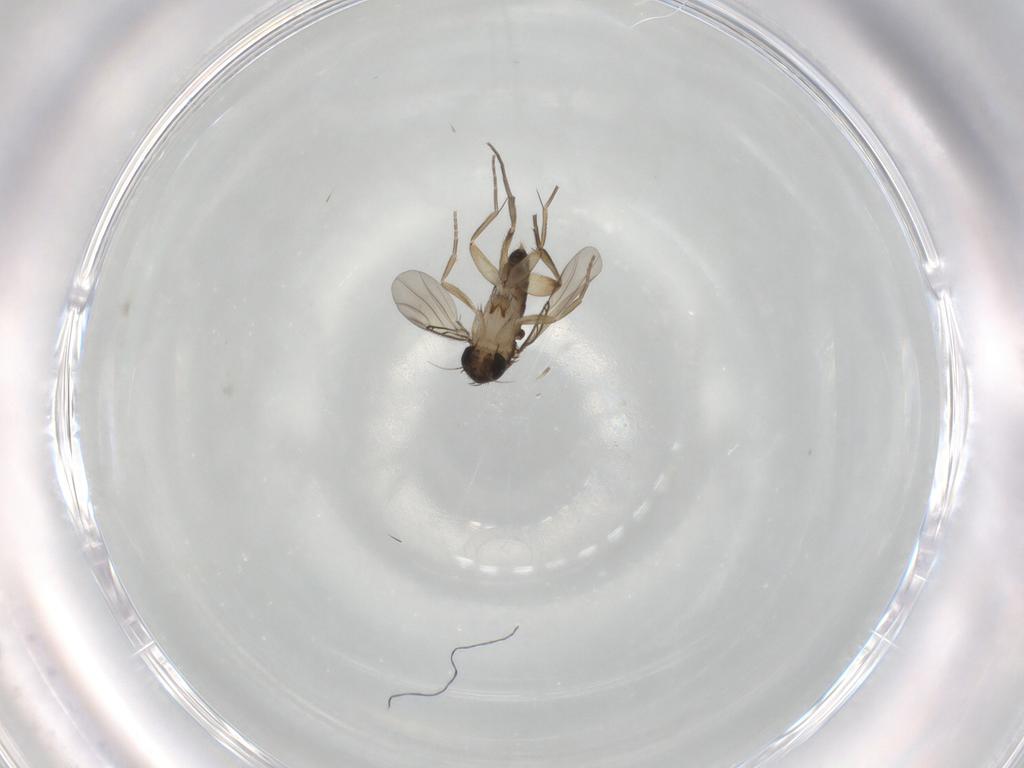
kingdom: Animalia
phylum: Arthropoda
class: Insecta
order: Diptera
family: Phoridae
